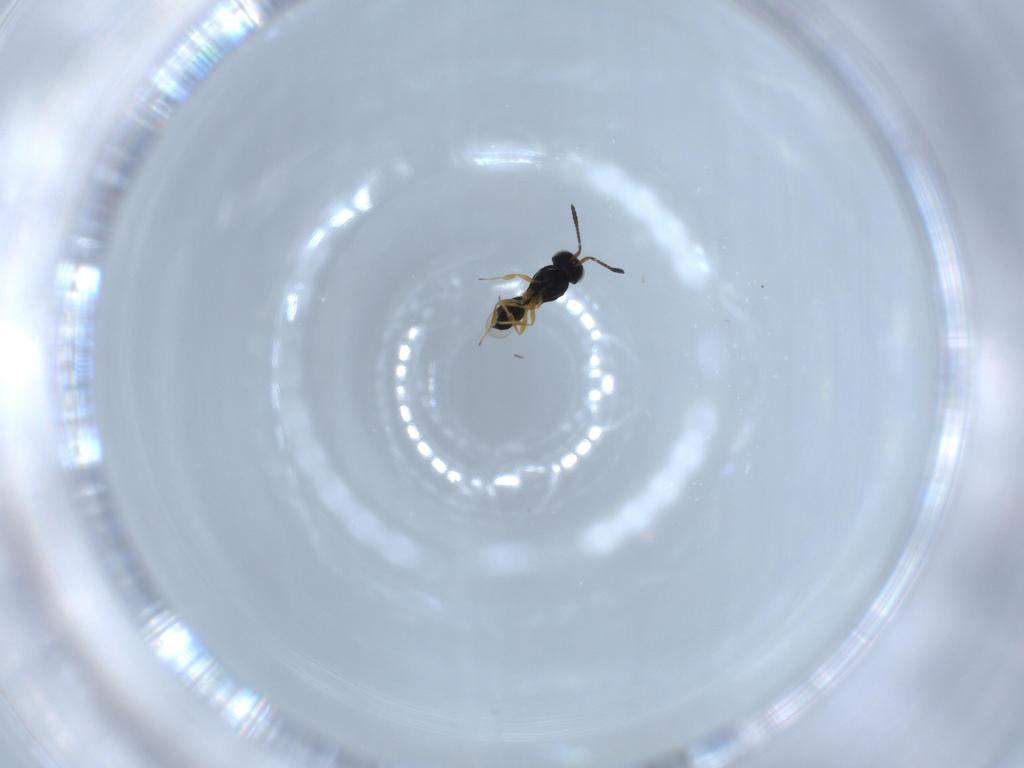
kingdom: Animalia
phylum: Arthropoda
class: Insecta
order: Hymenoptera
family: Scelionidae
